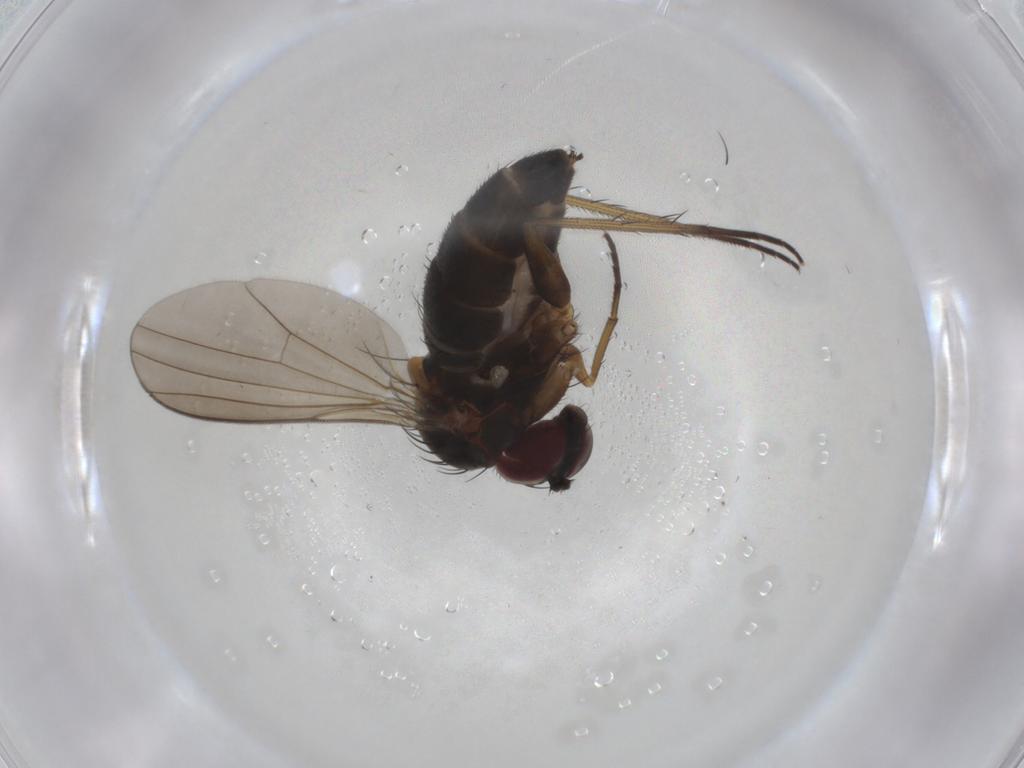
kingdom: Animalia
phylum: Arthropoda
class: Insecta
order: Diptera
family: Dolichopodidae
